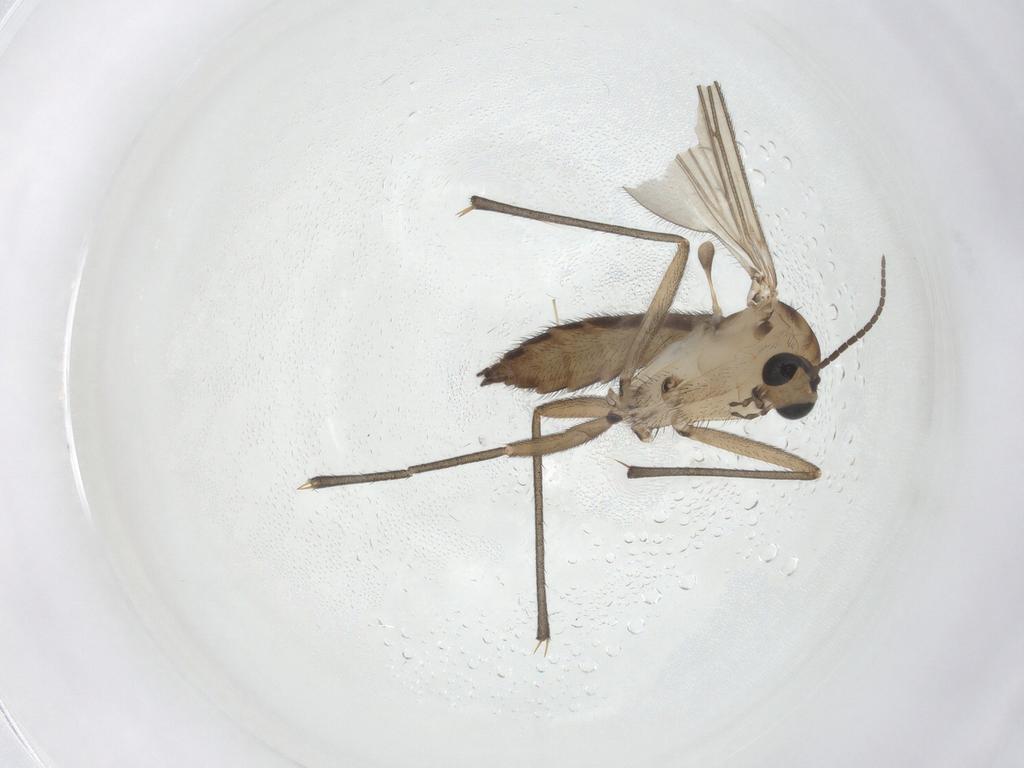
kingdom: Animalia
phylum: Arthropoda
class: Insecta
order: Diptera
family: Sciaridae
